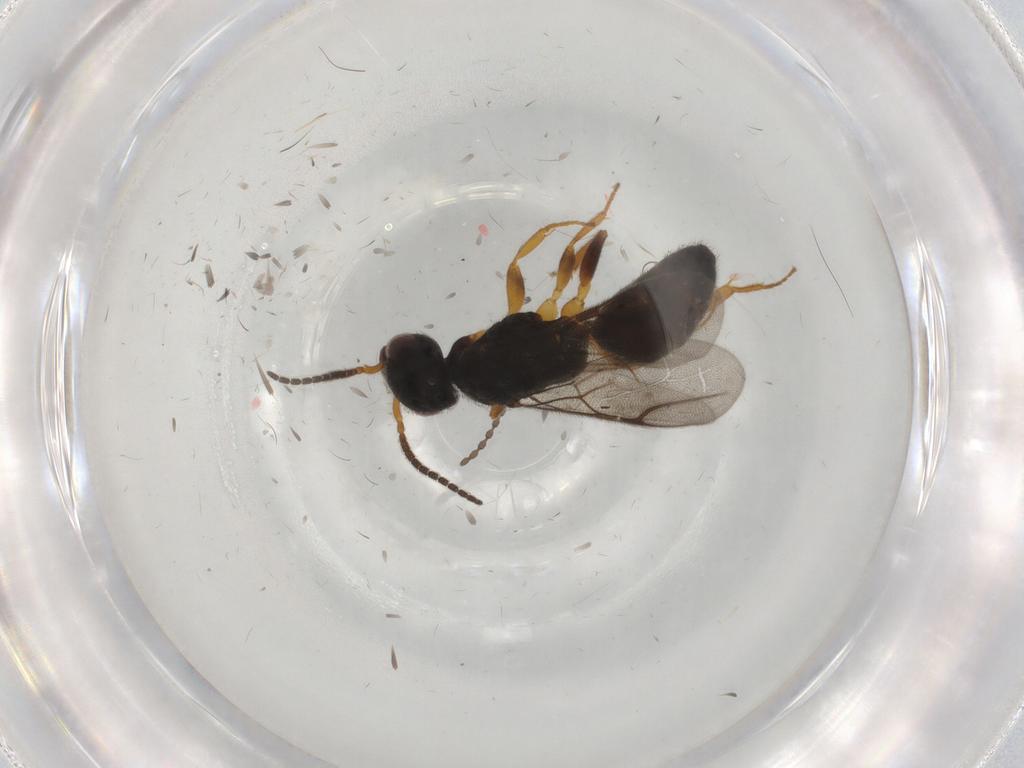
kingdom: Animalia
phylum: Arthropoda
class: Insecta
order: Hymenoptera
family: Bethylidae
